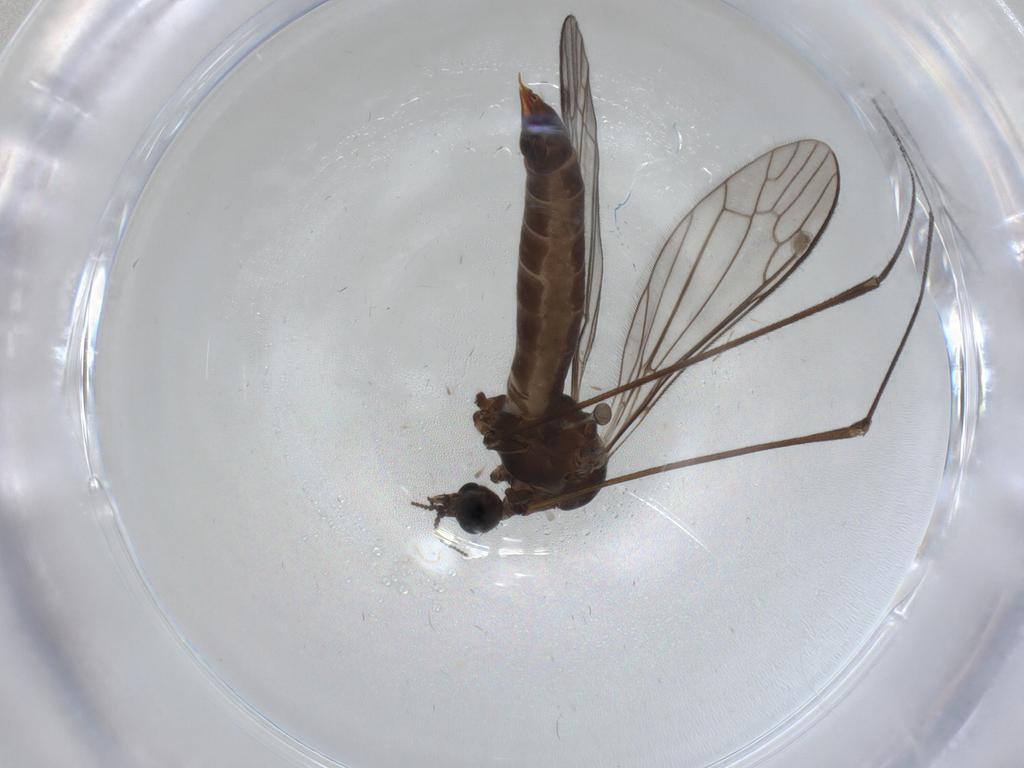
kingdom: Animalia
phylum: Arthropoda
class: Insecta
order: Diptera
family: Limoniidae
